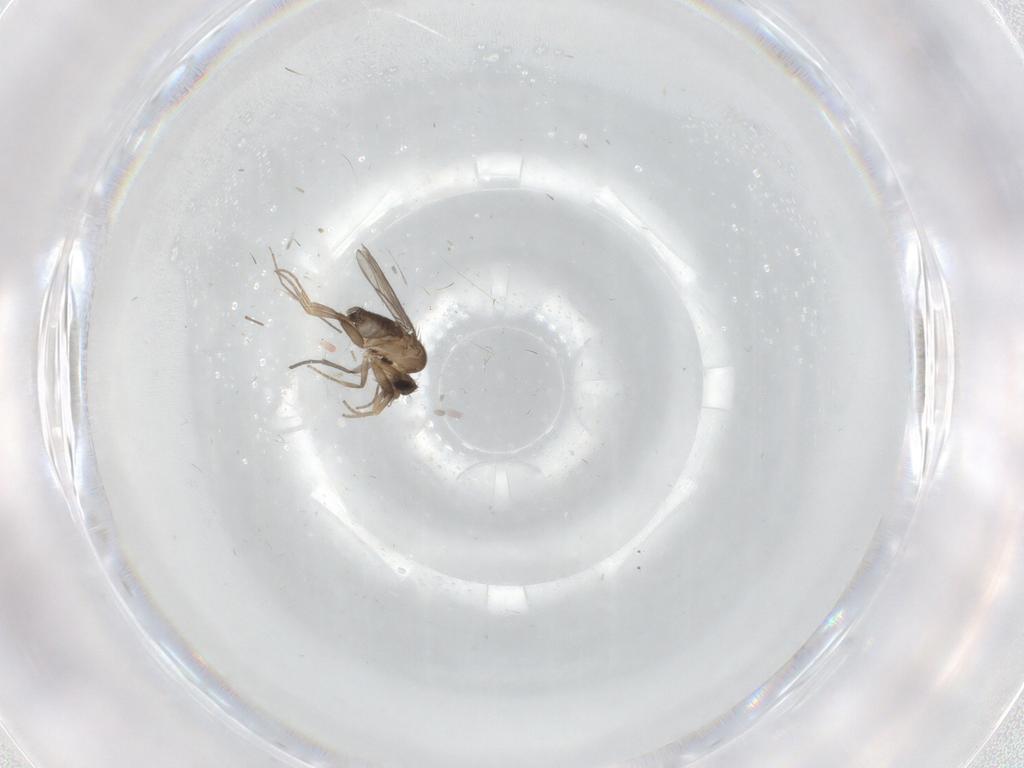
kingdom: Animalia
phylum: Arthropoda
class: Insecta
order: Diptera
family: Phoridae
